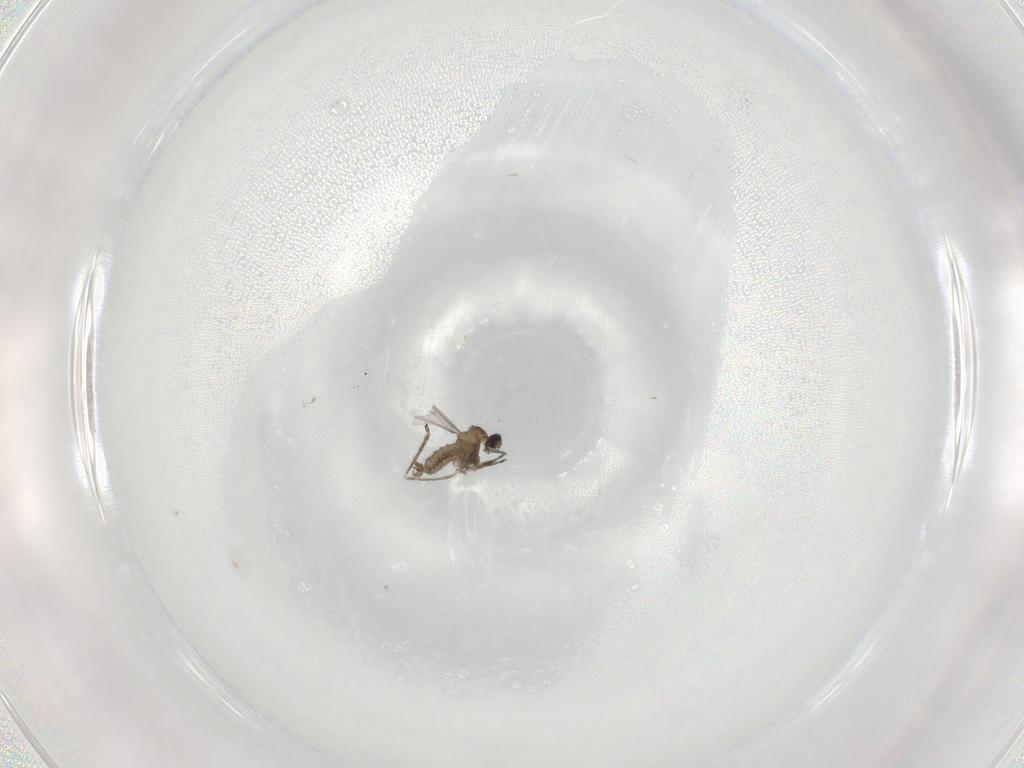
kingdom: Animalia
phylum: Arthropoda
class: Insecta
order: Diptera
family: Cecidomyiidae
